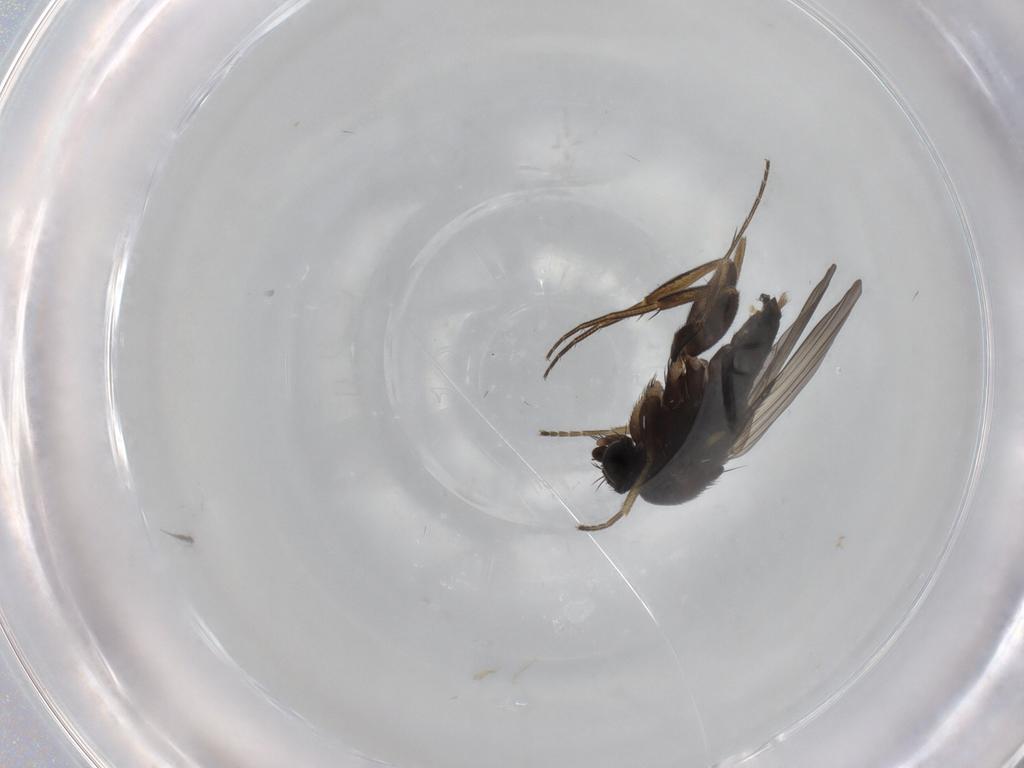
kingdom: Animalia
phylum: Arthropoda
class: Insecta
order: Diptera
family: Phoridae
